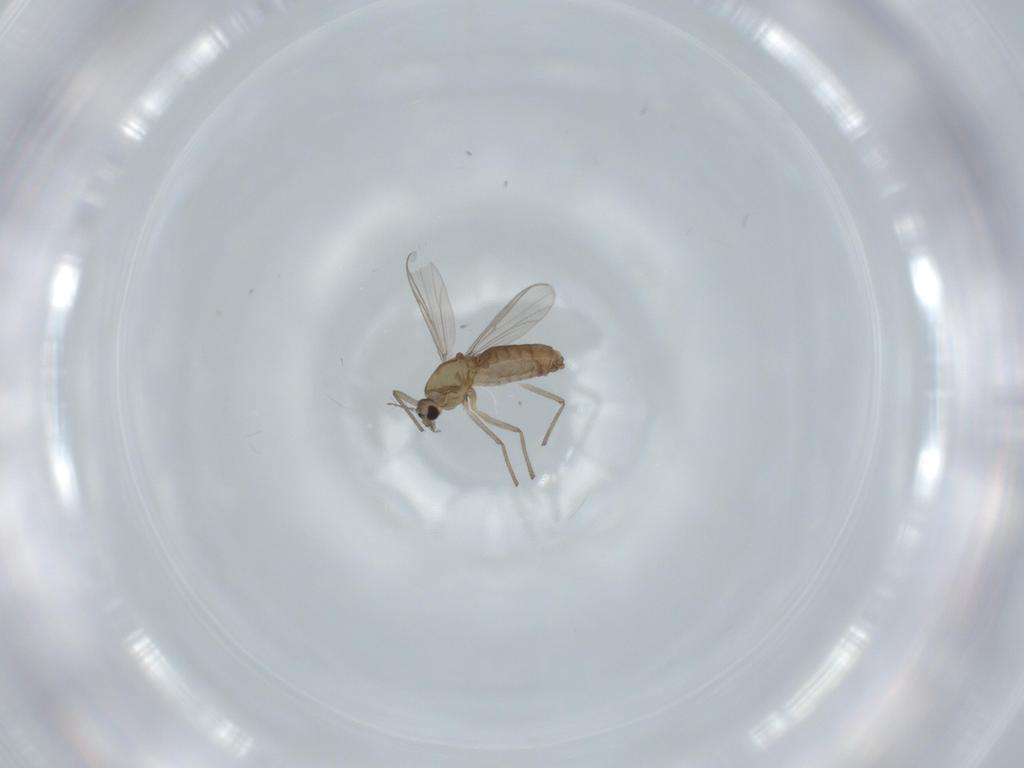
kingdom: Animalia
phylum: Arthropoda
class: Insecta
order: Diptera
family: Chironomidae
